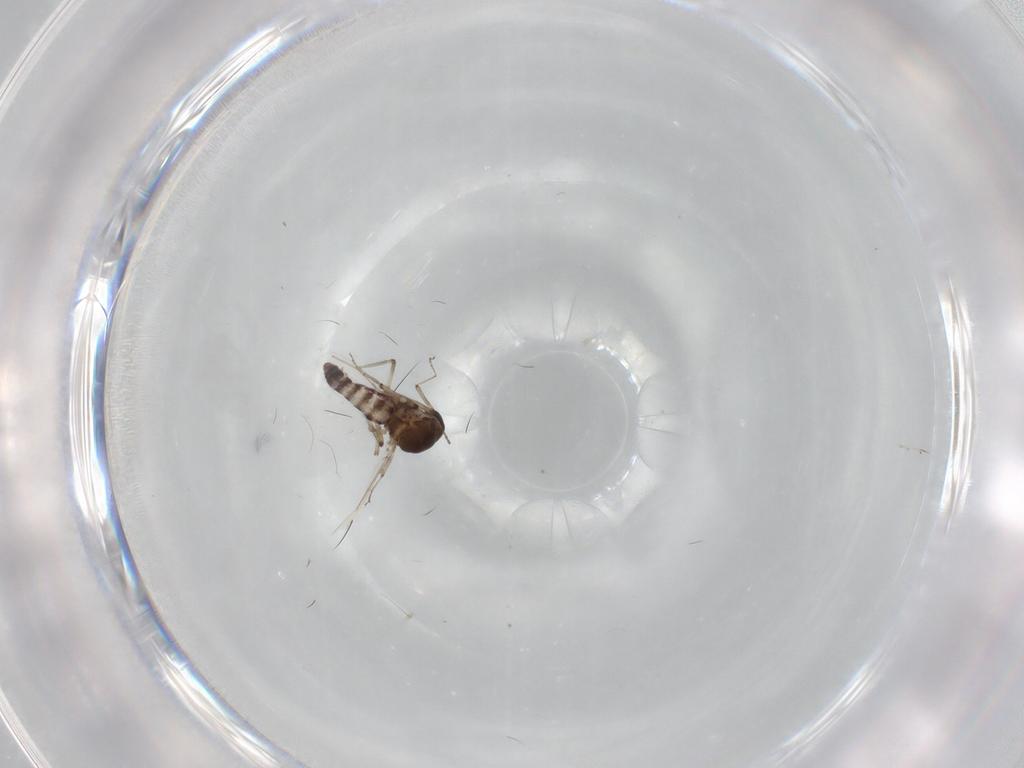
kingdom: Animalia
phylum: Arthropoda
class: Insecta
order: Diptera
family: Ceratopogonidae
